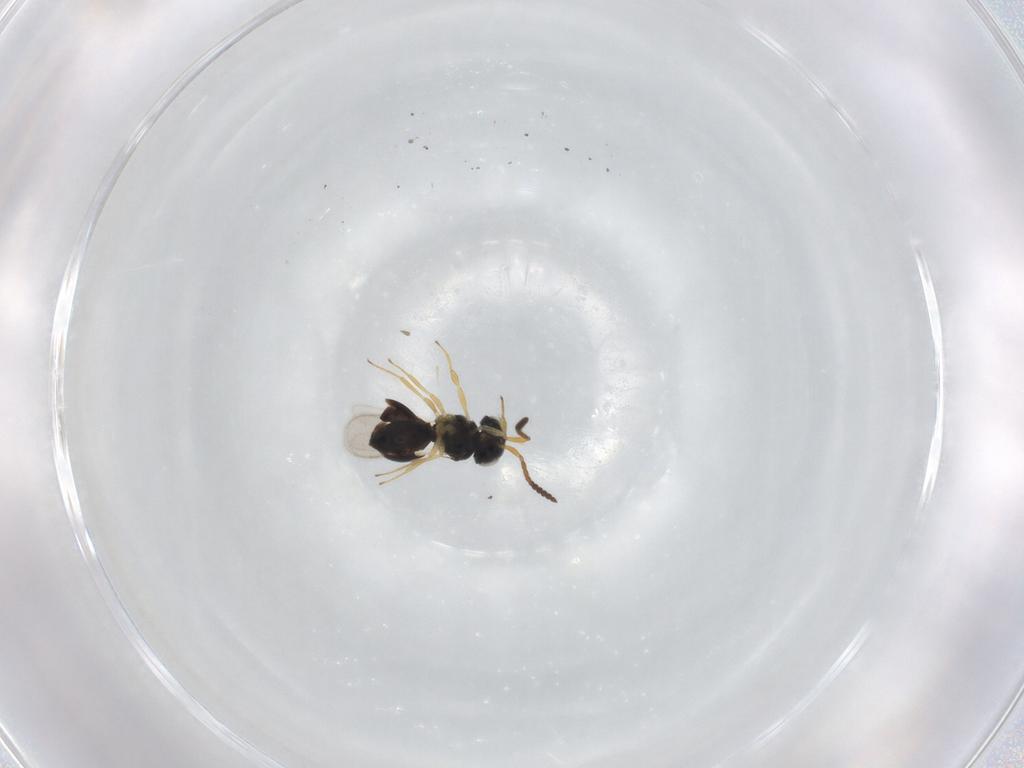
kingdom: Animalia
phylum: Arthropoda
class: Insecta
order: Hymenoptera
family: Scelionidae
